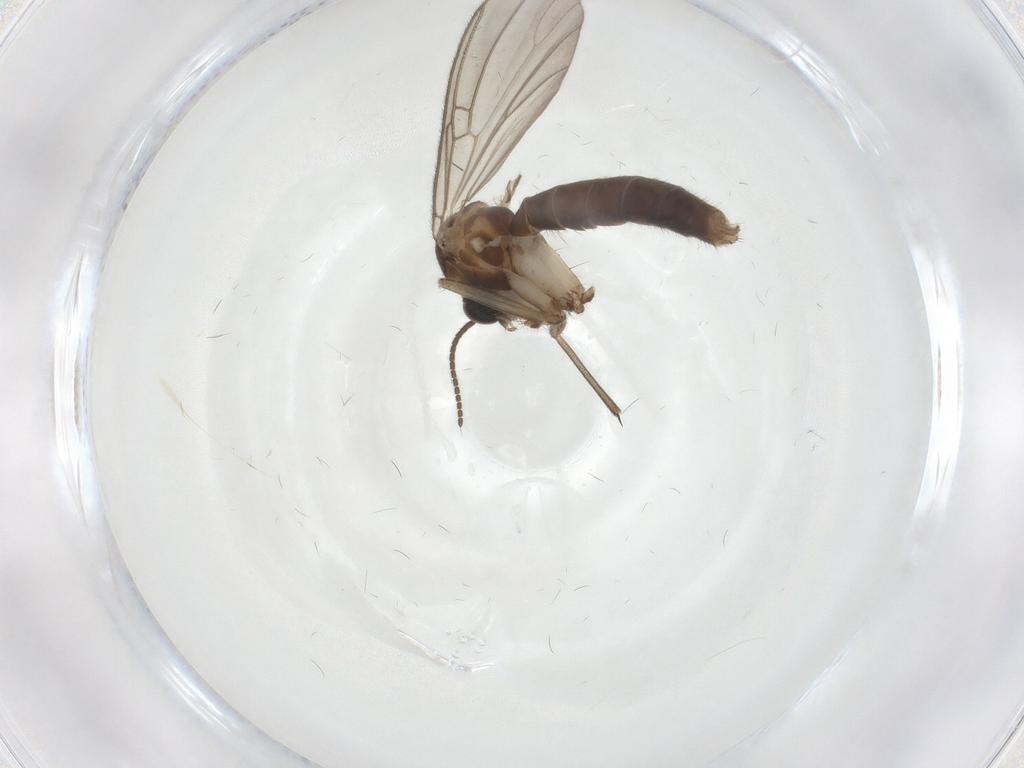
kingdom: Animalia
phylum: Arthropoda
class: Insecta
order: Diptera
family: Mycetophilidae
